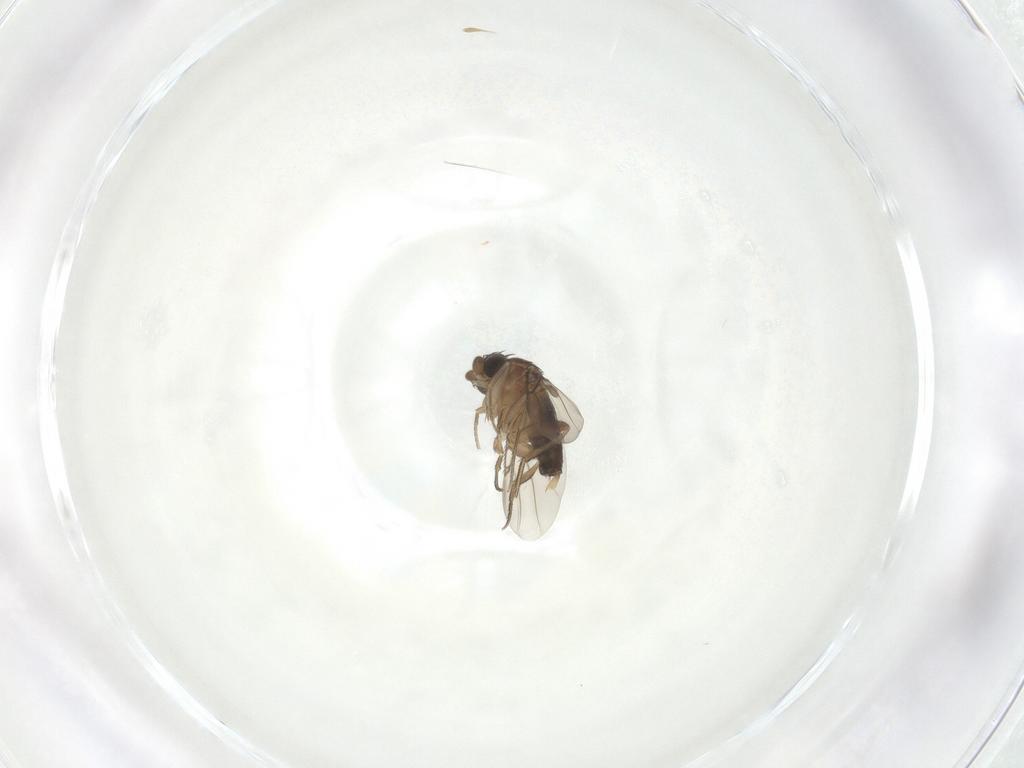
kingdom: Animalia
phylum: Arthropoda
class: Insecta
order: Diptera
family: Phoridae
